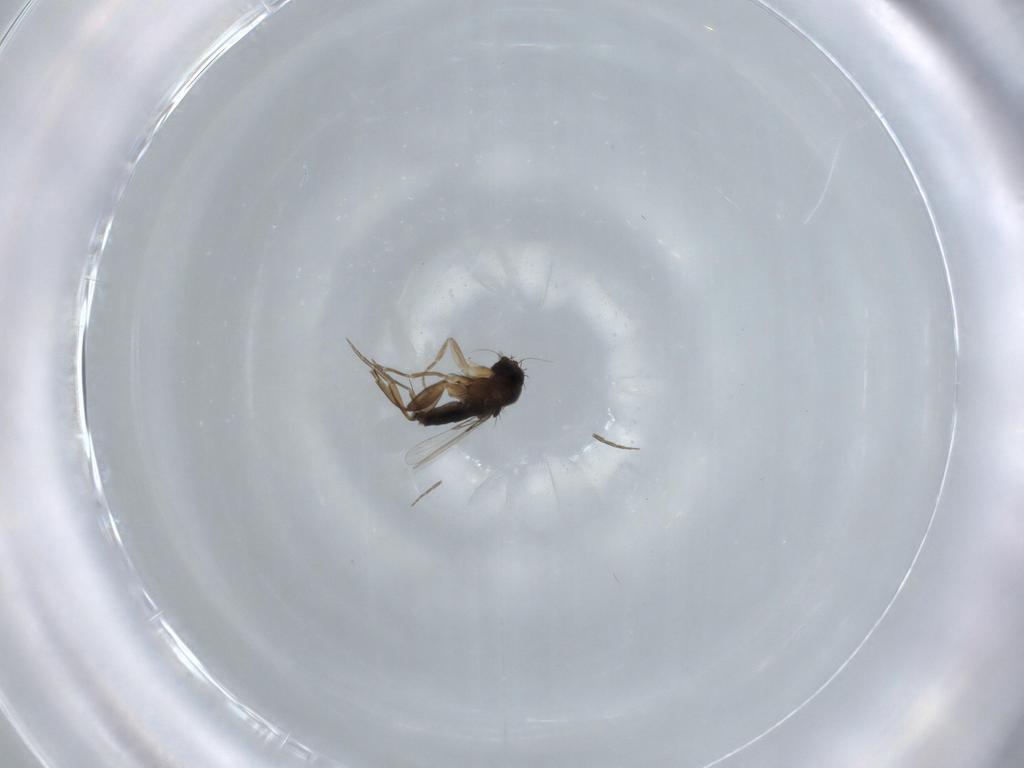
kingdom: Animalia
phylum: Arthropoda
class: Insecta
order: Diptera
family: Phoridae
